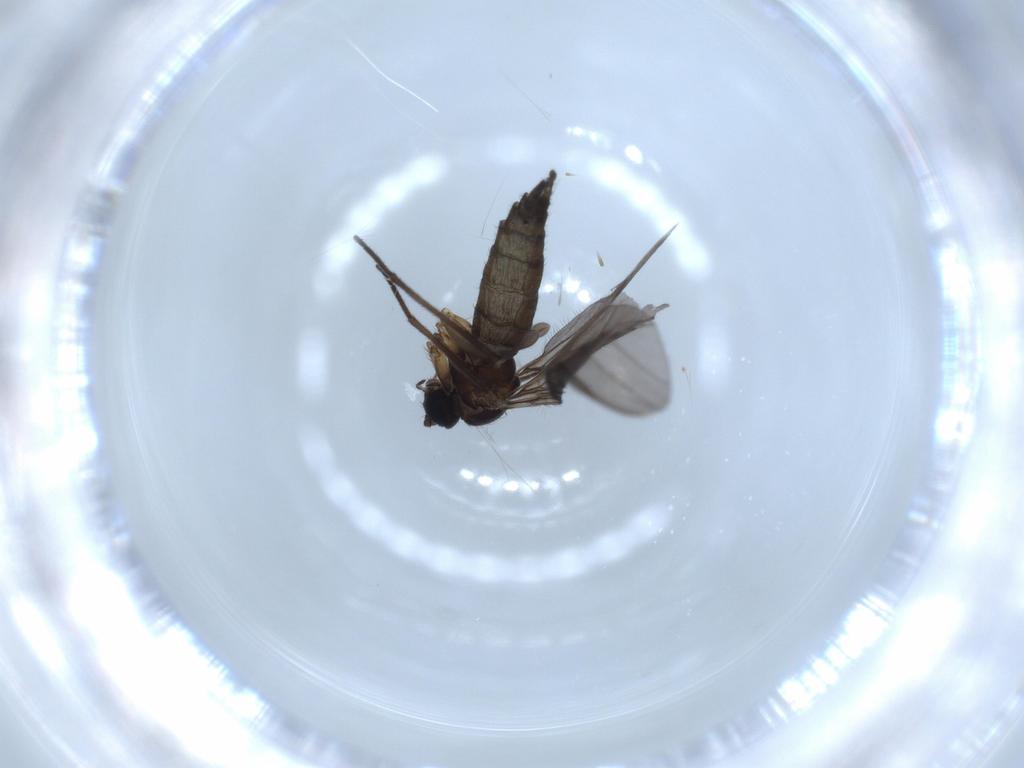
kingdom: Animalia
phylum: Arthropoda
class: Insecta
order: Diptera
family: Sciaridae
